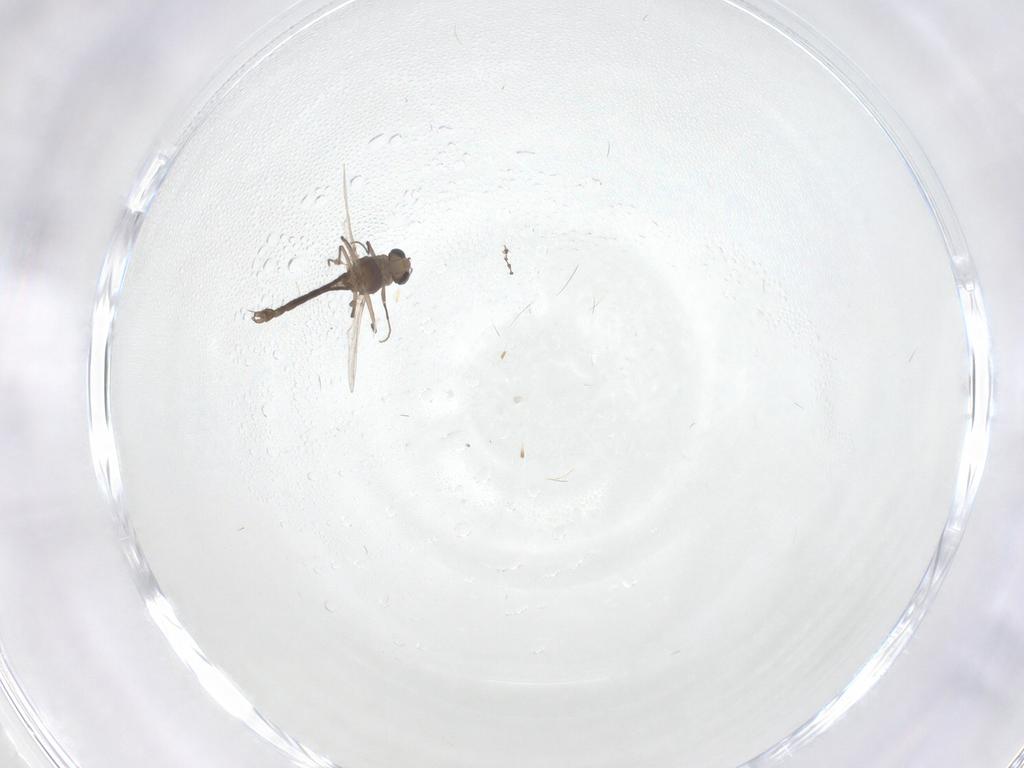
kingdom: Animalia
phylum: Arthropoda
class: Insecta
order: Diptera
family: Chironomidae
